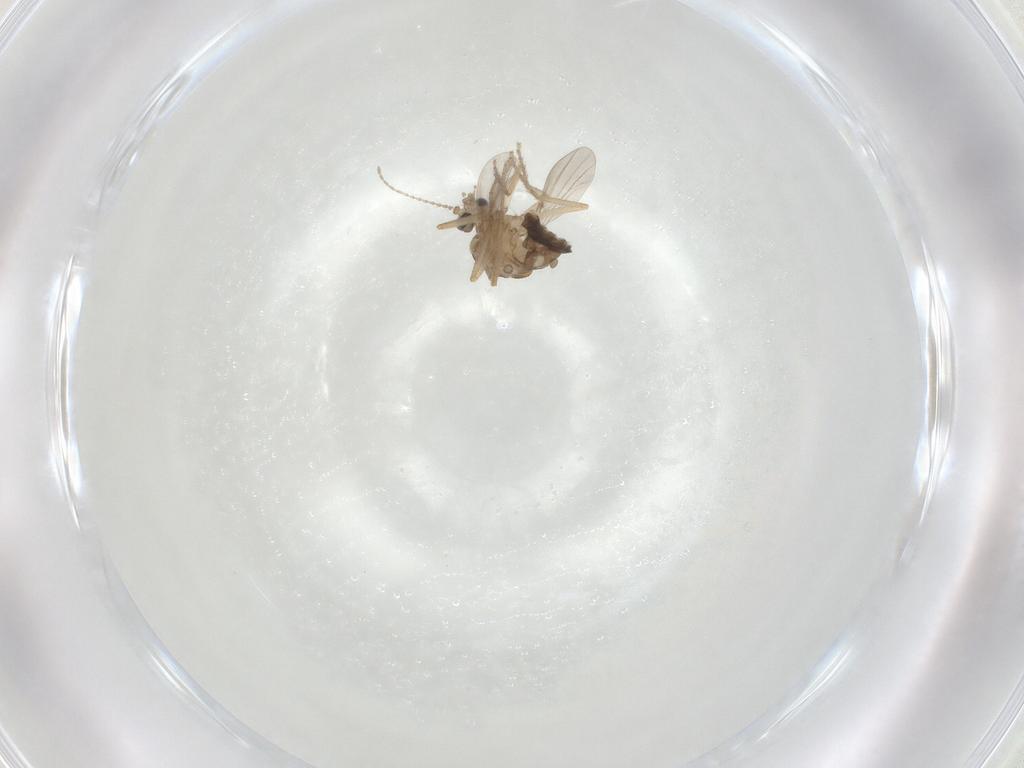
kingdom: Animalia
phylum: Arthropoda
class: Insecta
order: Diptera
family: Ceratopogonidae
